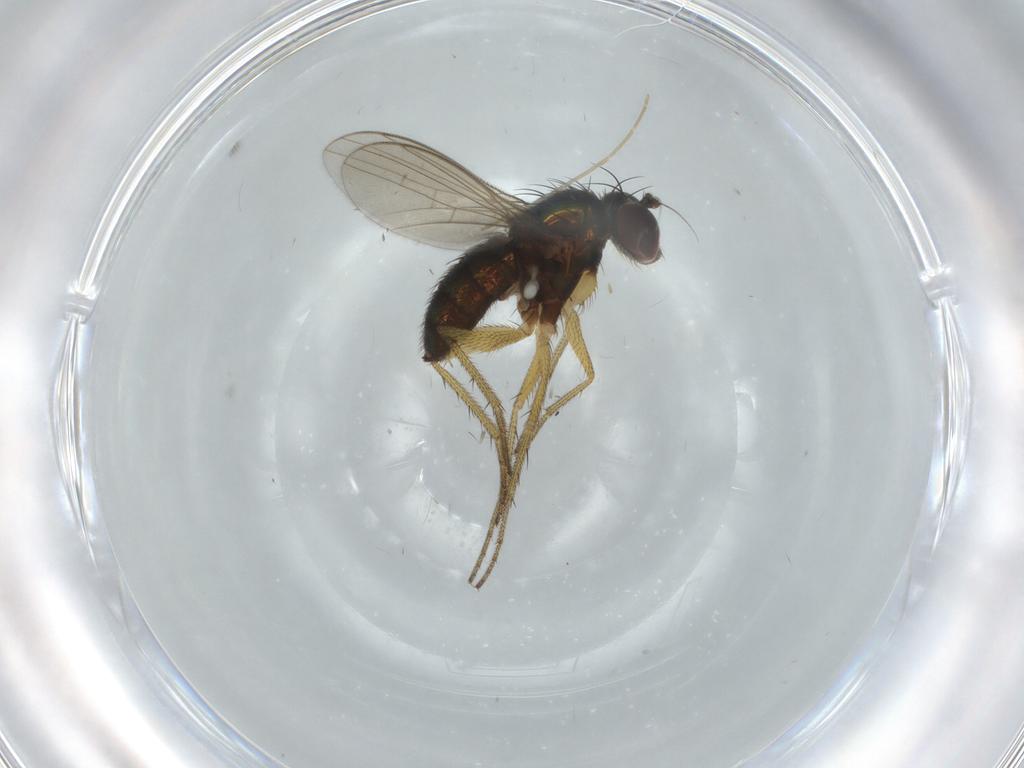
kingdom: Animalia
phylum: Arthropoda
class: Insecta
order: Diptera
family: Dolichopodidae
